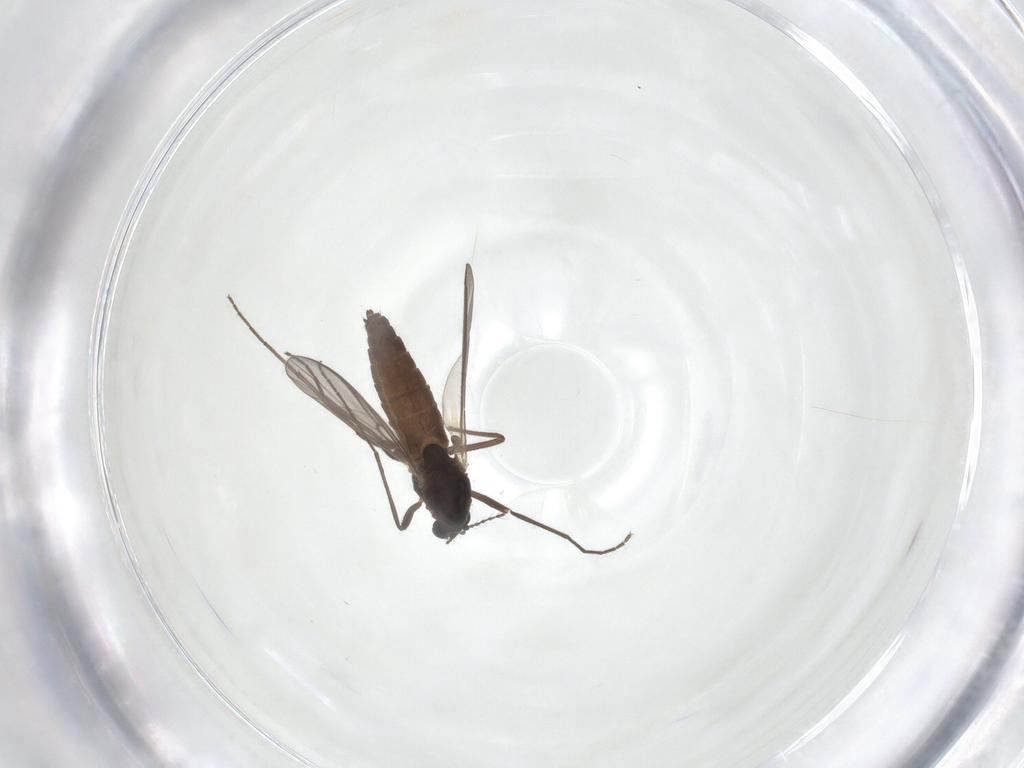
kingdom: Animalia
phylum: Arthropoda
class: Insecta
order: Diptera
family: Chironomidae
